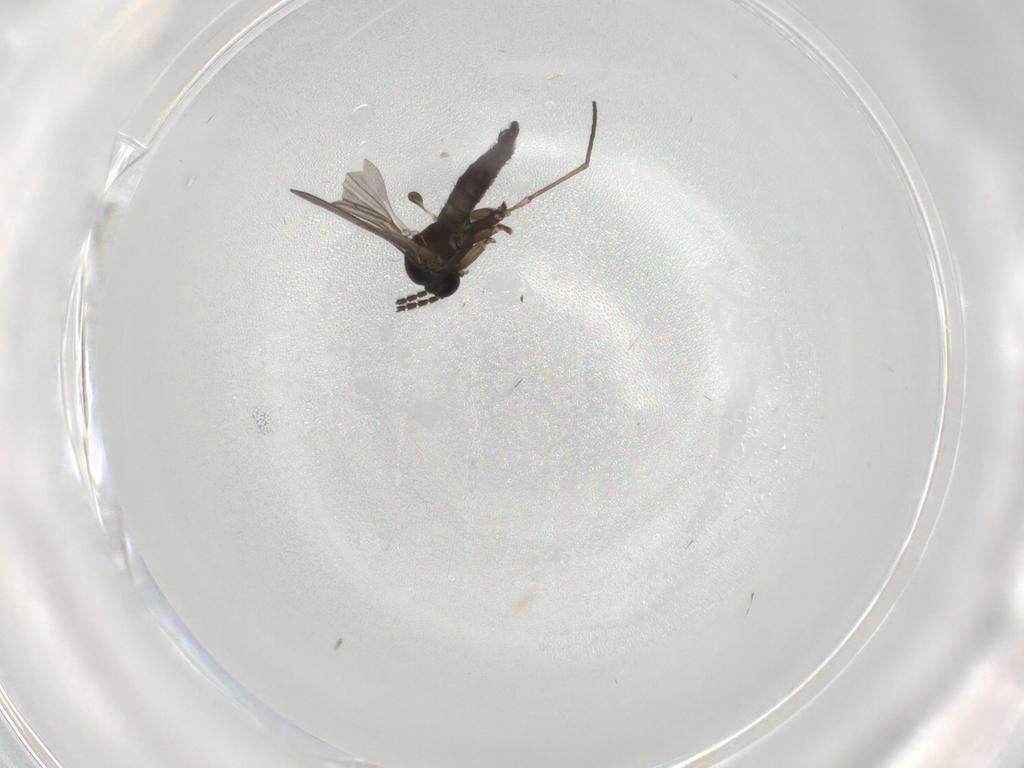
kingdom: Animalia
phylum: Arthropoda
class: Insecta
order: Diptera
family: Sciaridae
